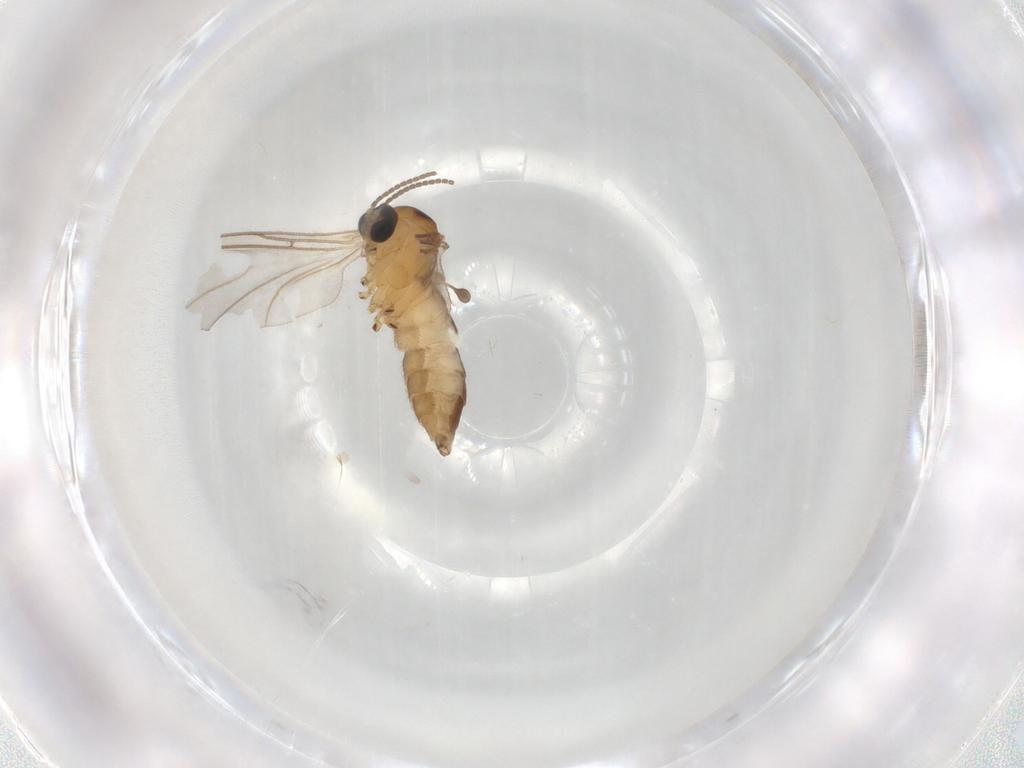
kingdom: Animalia
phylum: Arthropoda
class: Insecta
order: Diptera
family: Sciaridae
